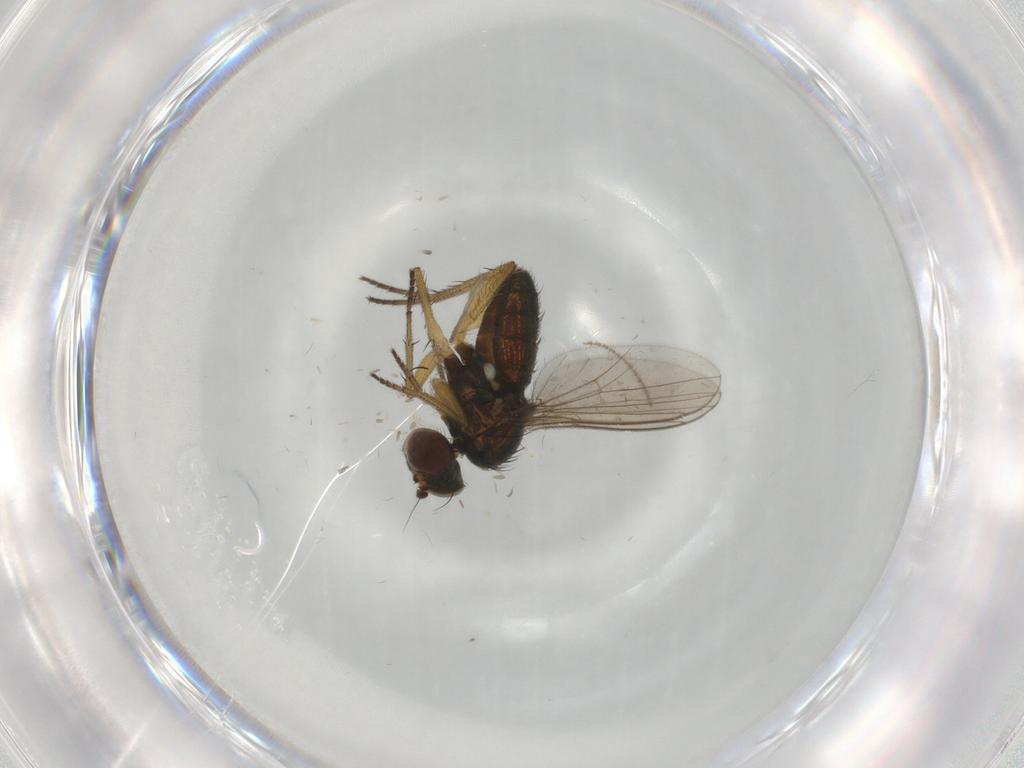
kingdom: Animalia
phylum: Arthropoda
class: Insecta
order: Diptera
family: Psychodidae
